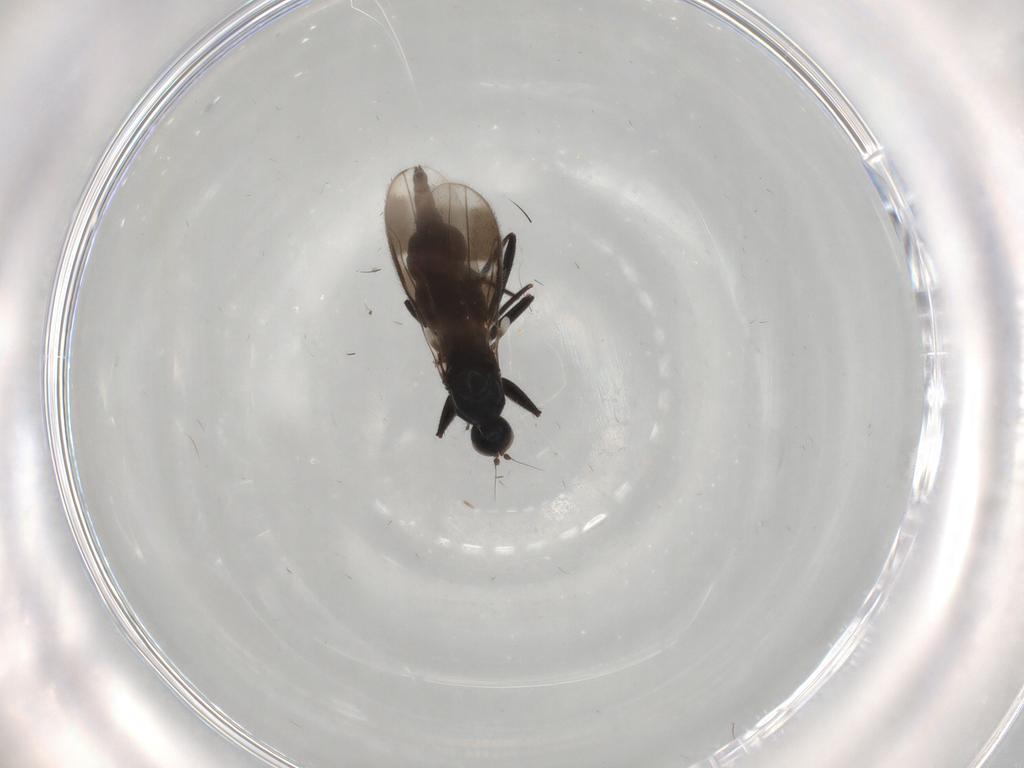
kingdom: Animalia
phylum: Arthropoda
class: Insecta
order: Diptera
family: Hybotidae
